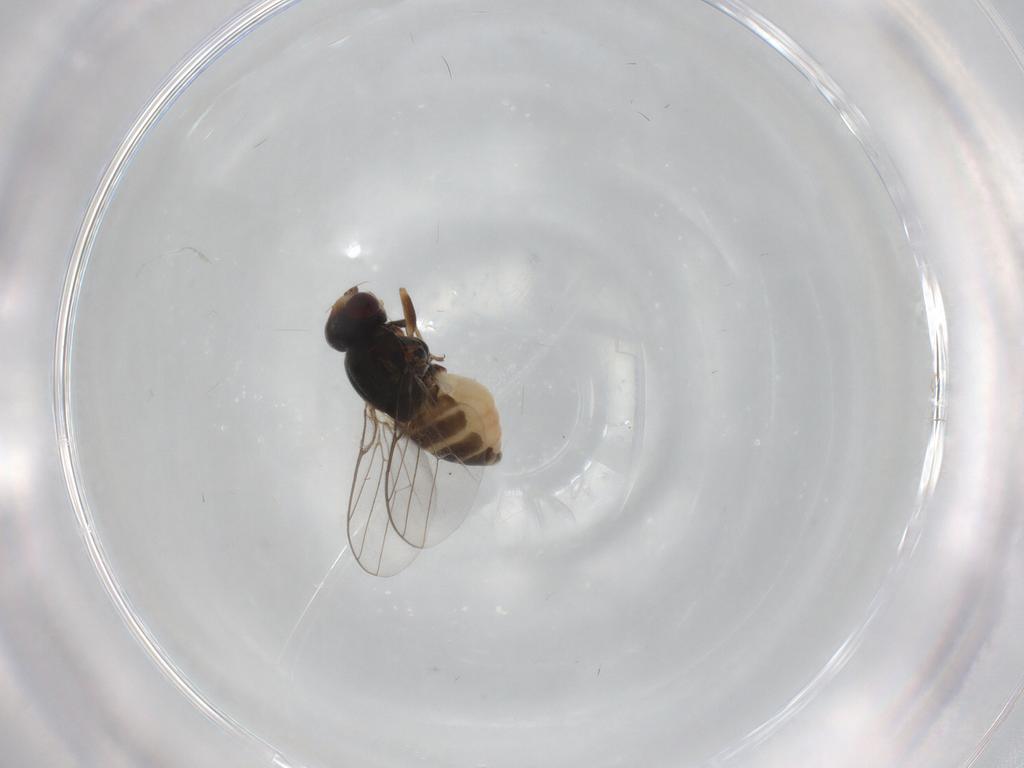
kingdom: Animalia
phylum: Arthropoda
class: Insecta
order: Diptera
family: Chloropidae
